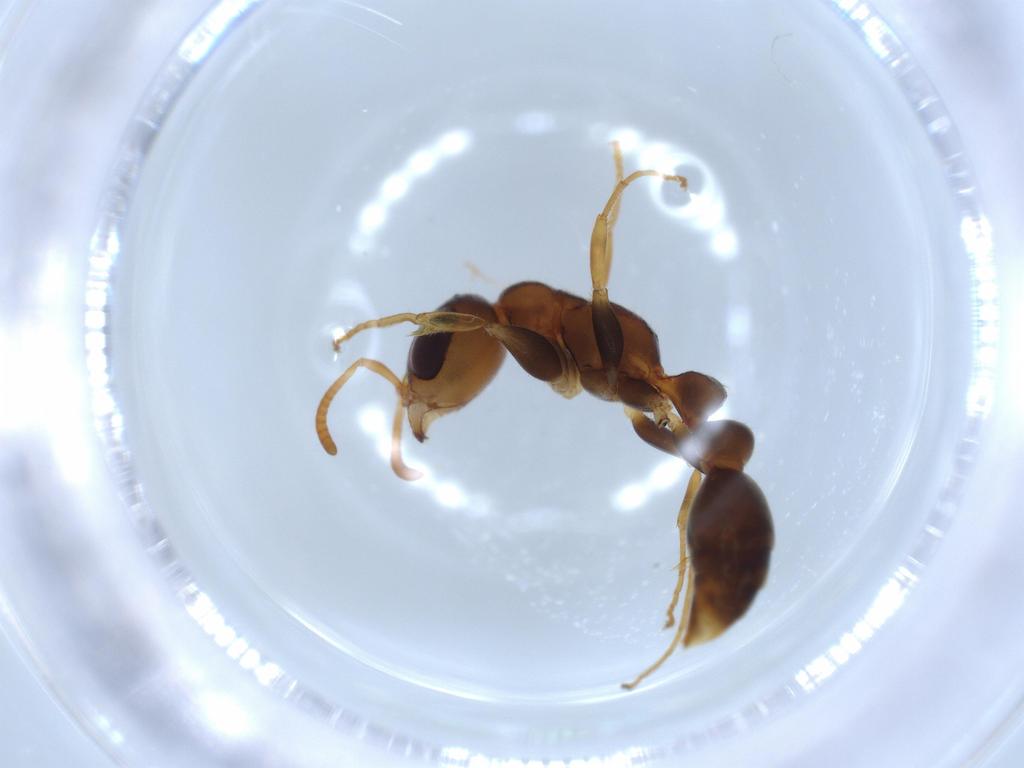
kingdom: Animalia
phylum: Arthropoda
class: Insecta
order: Hymenoptera
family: Formicidae
